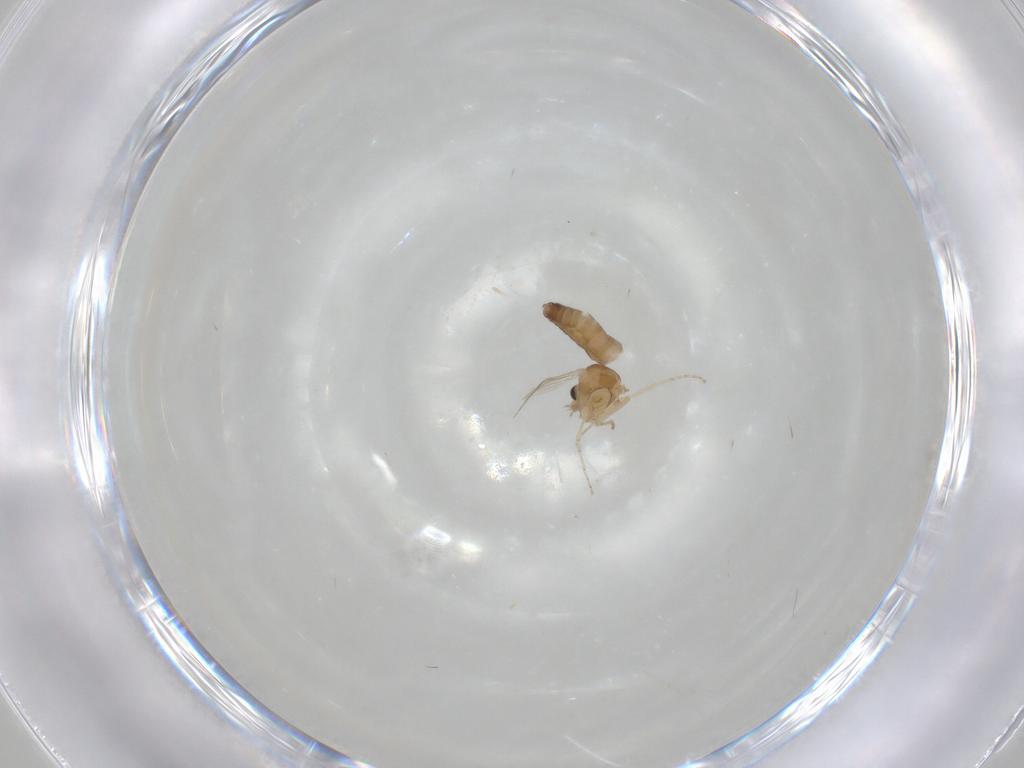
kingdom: Animalia
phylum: Arthropoda
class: Insecta
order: Diptera
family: Ceratopogonidae
